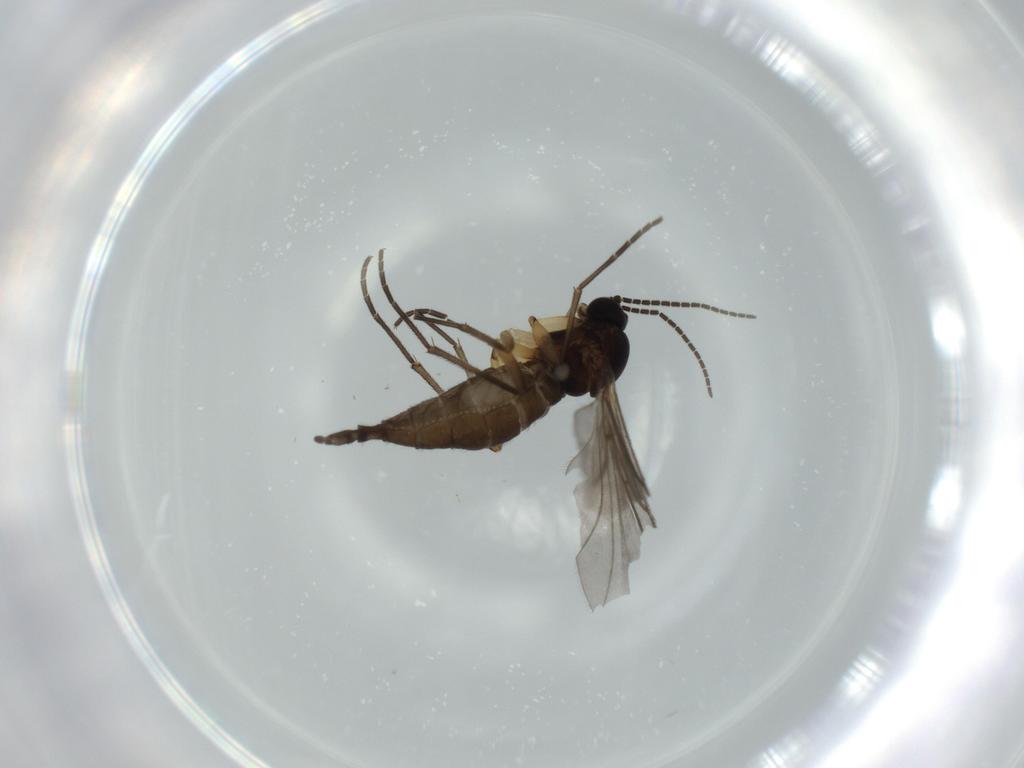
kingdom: Animalia
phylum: Arthropoda
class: Insecta
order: Diptera
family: Sciaridae
